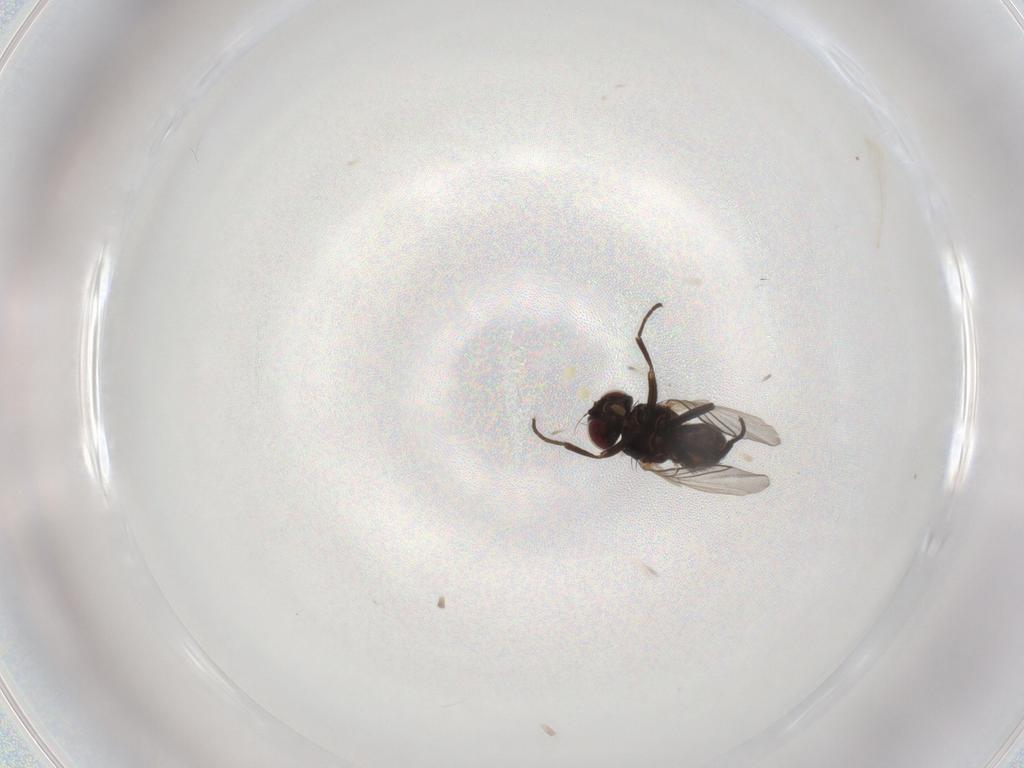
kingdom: Animalia
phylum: Arthropoda
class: Insecta
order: Diptera
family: Agromyzidae
